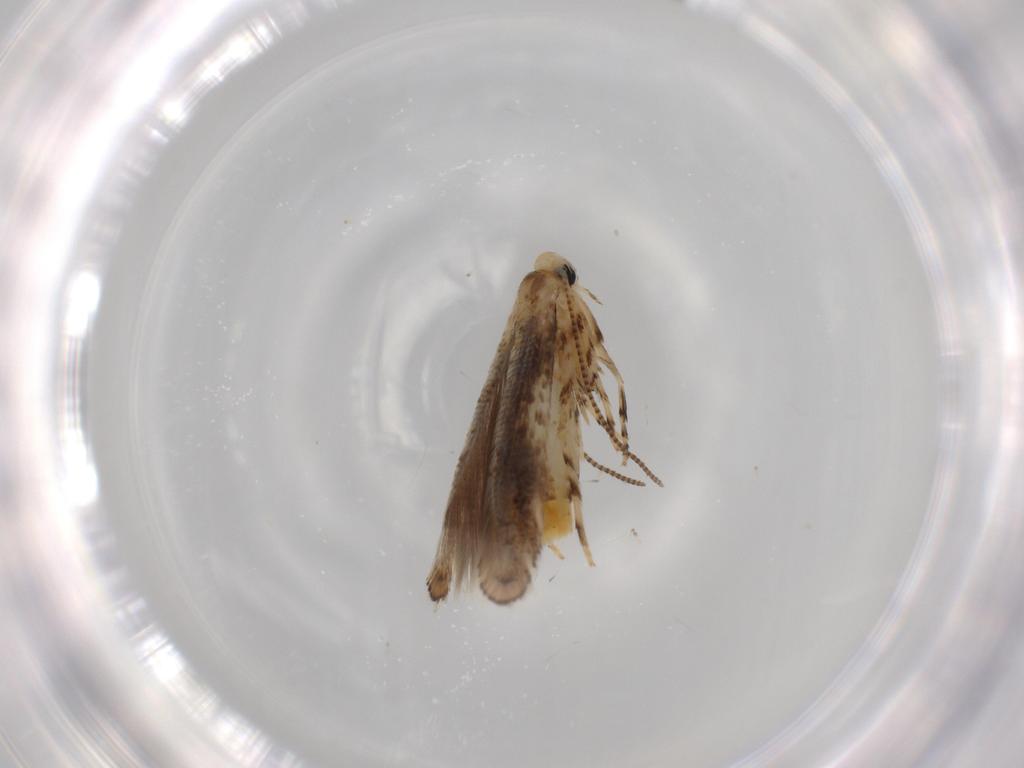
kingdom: Animalia
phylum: Arthropoda
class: Insecta
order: Lepidoptera
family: Gracillariidae
